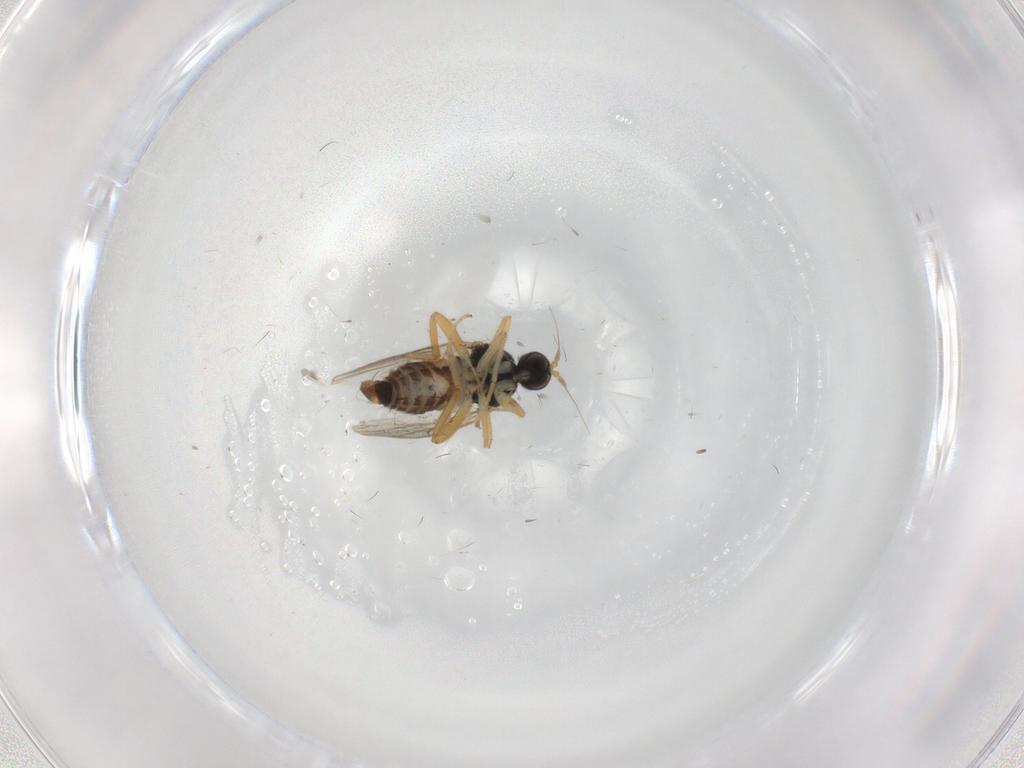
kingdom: Animalia
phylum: Arthropoda
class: Insecta
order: Diptera
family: Hybotidae
